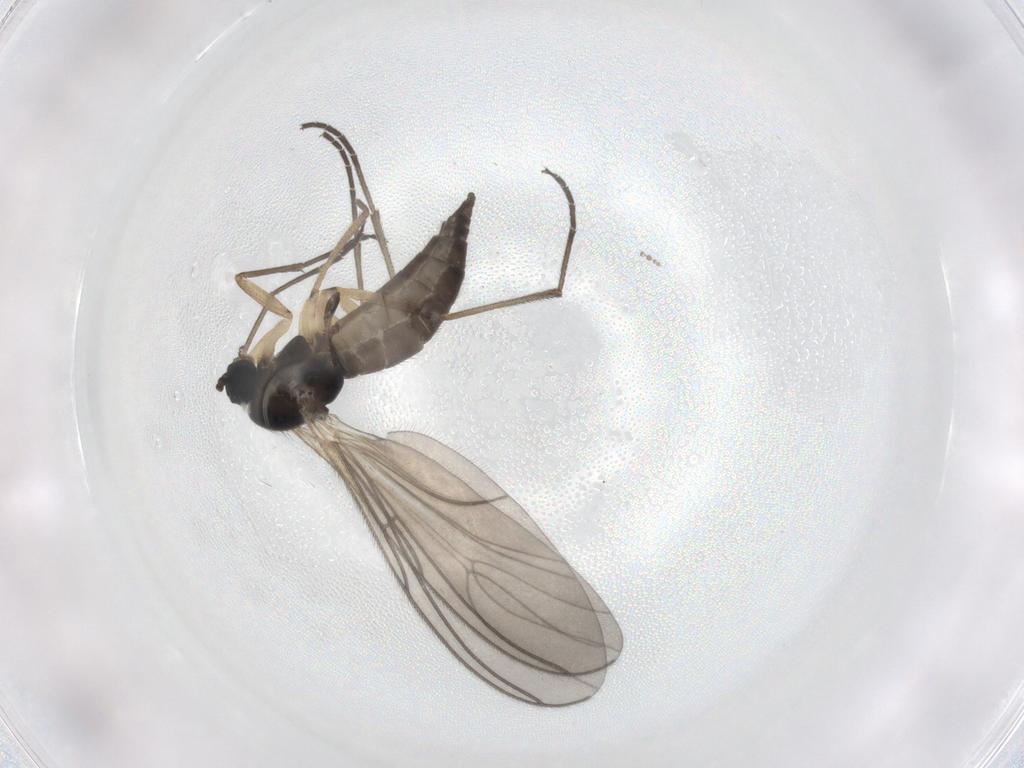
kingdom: Animalia
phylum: Arthropoda
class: Insecta
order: Diptera
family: Sciaridae
